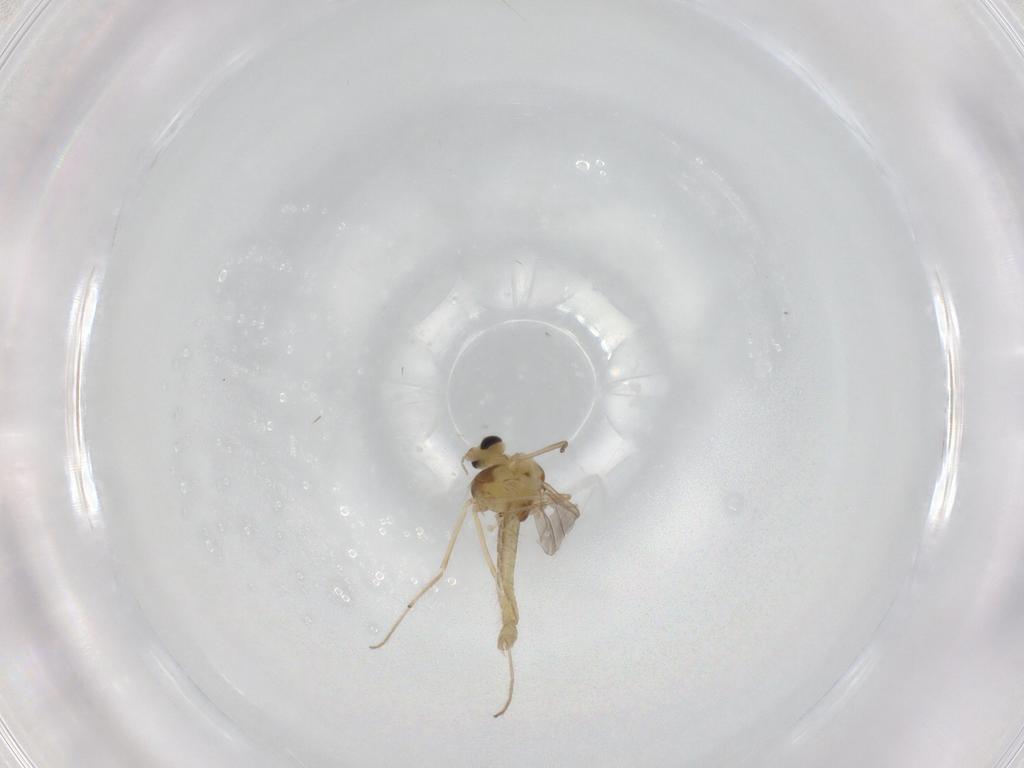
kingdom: Animalia
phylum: Arthropoda
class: Insecta
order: Diptera
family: Chironomidae
